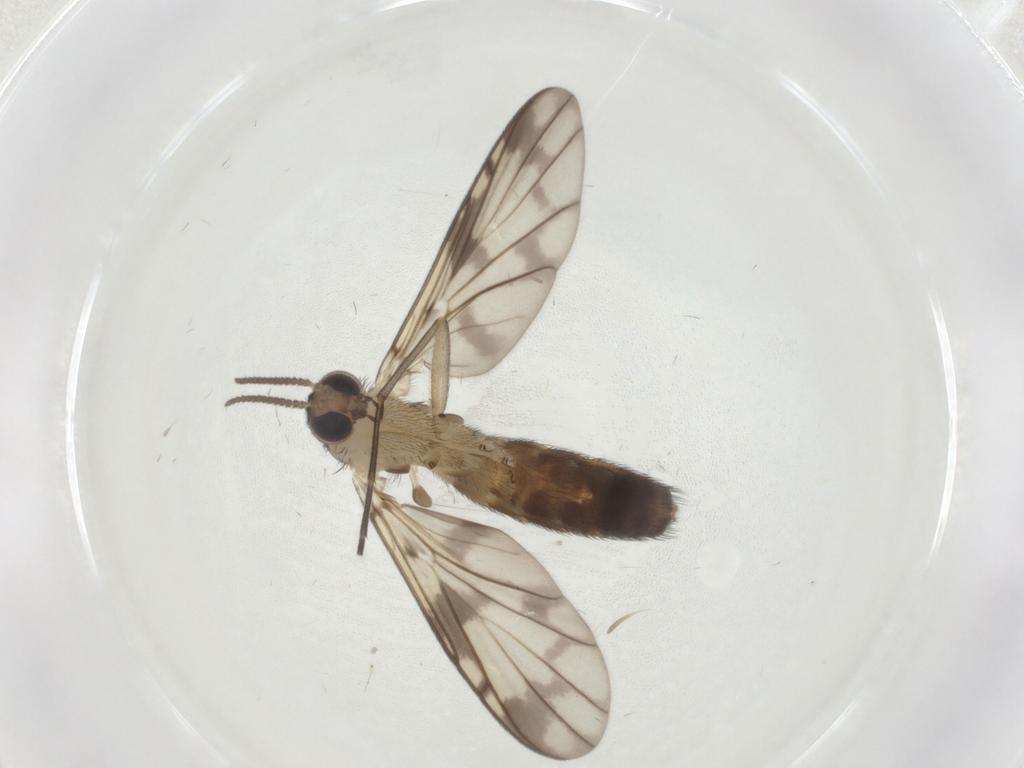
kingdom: Animalia
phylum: Arthropoda
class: Insecta
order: Diptera
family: Keroplatidae
